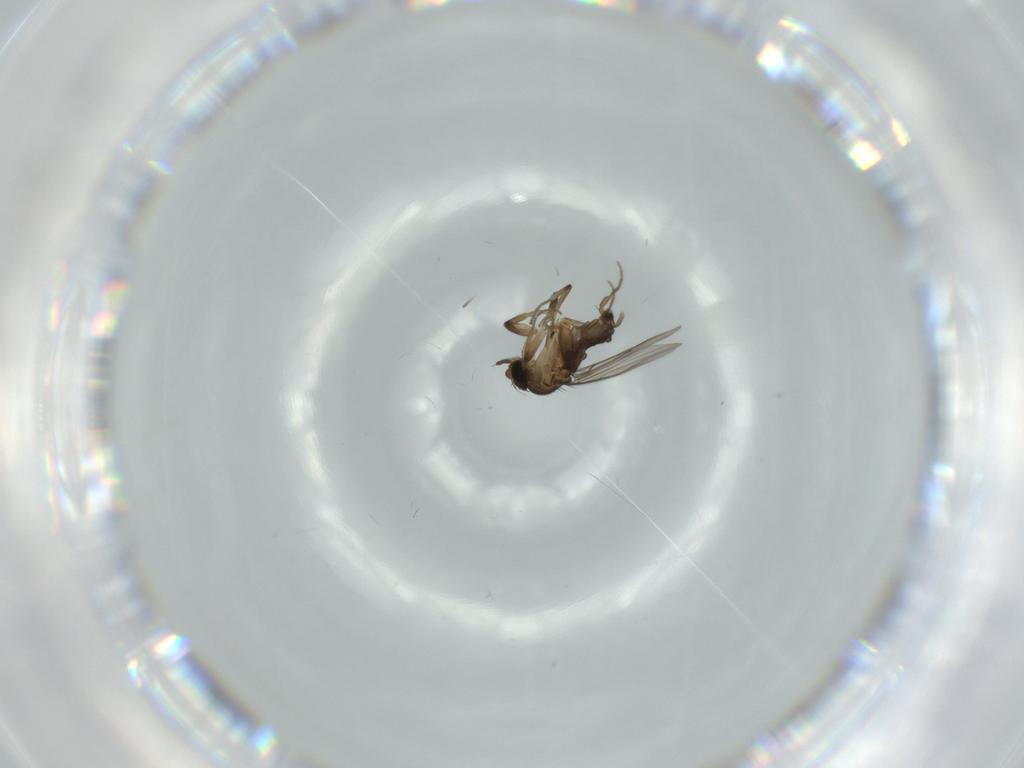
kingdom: Animalia
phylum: Arthropoda
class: Insecta
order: Diptera
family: Phoridae
